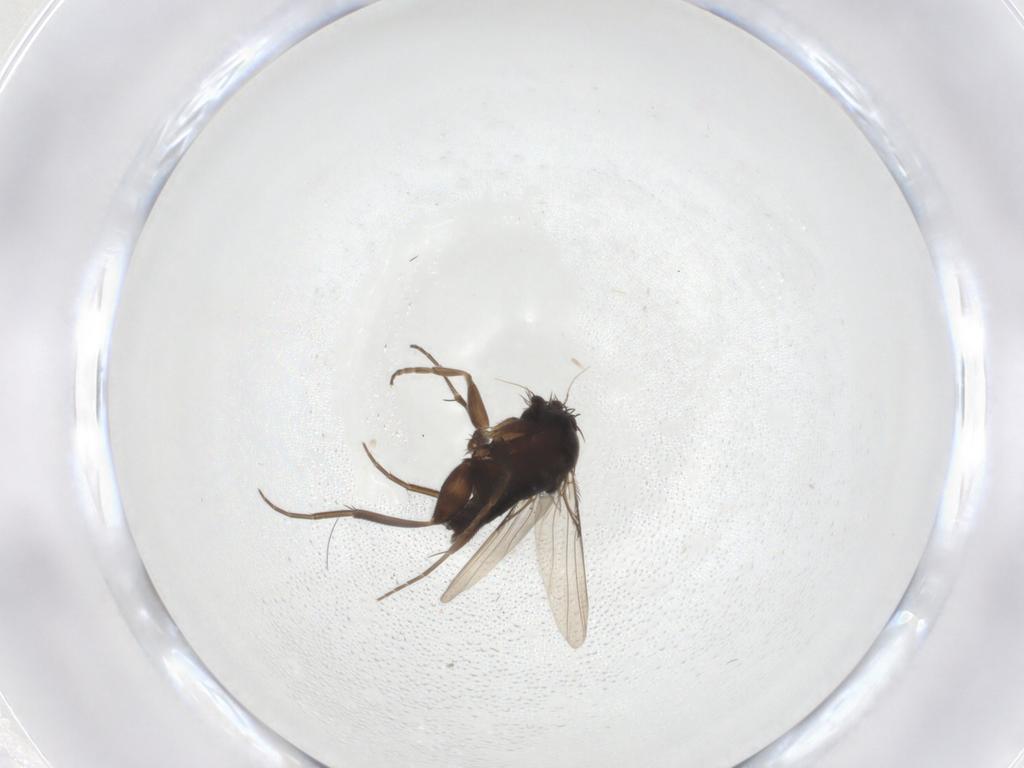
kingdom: Animalia
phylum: Arthropoda
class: Insecta
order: Diptera
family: Phoridae
